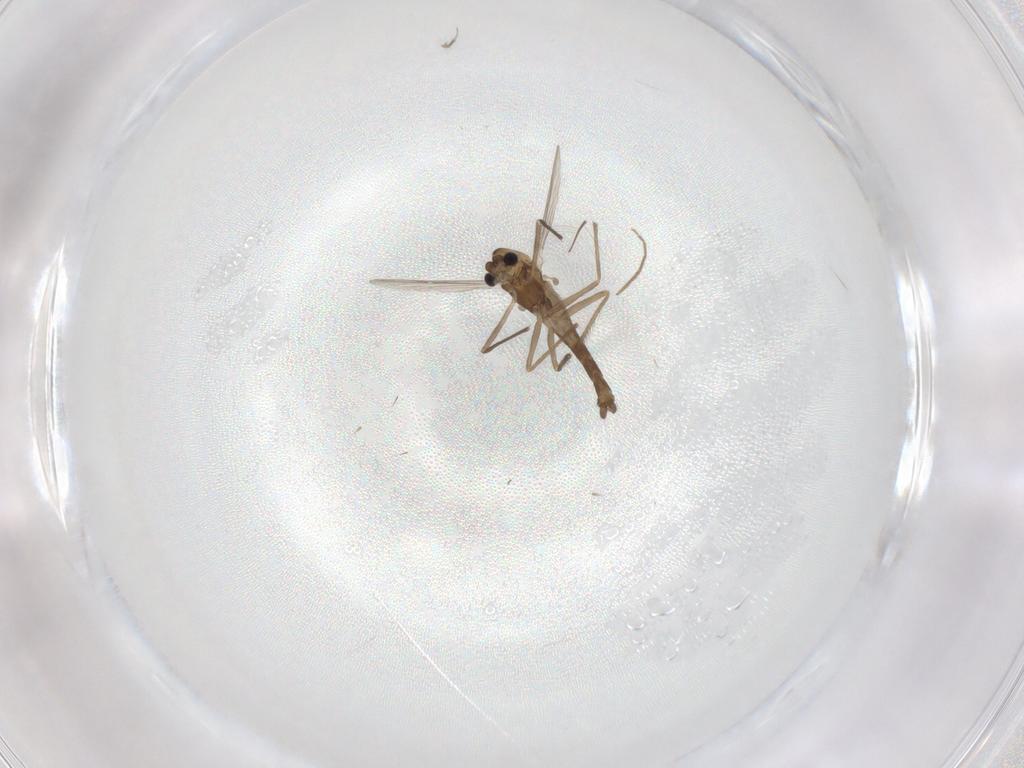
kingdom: Animalia
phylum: Arthropoda
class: Insecta
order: Diptera
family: Chironomidae
